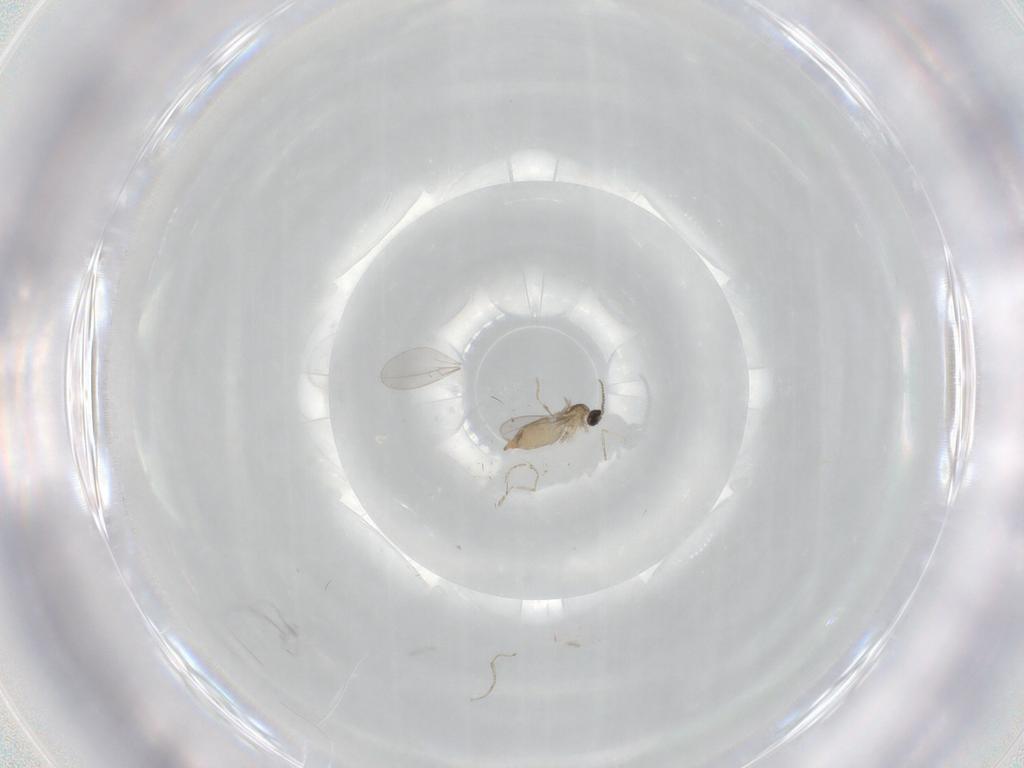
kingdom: Animalia
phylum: Arthropoda
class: Insecta
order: Diptera
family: Cecidomyiidae
